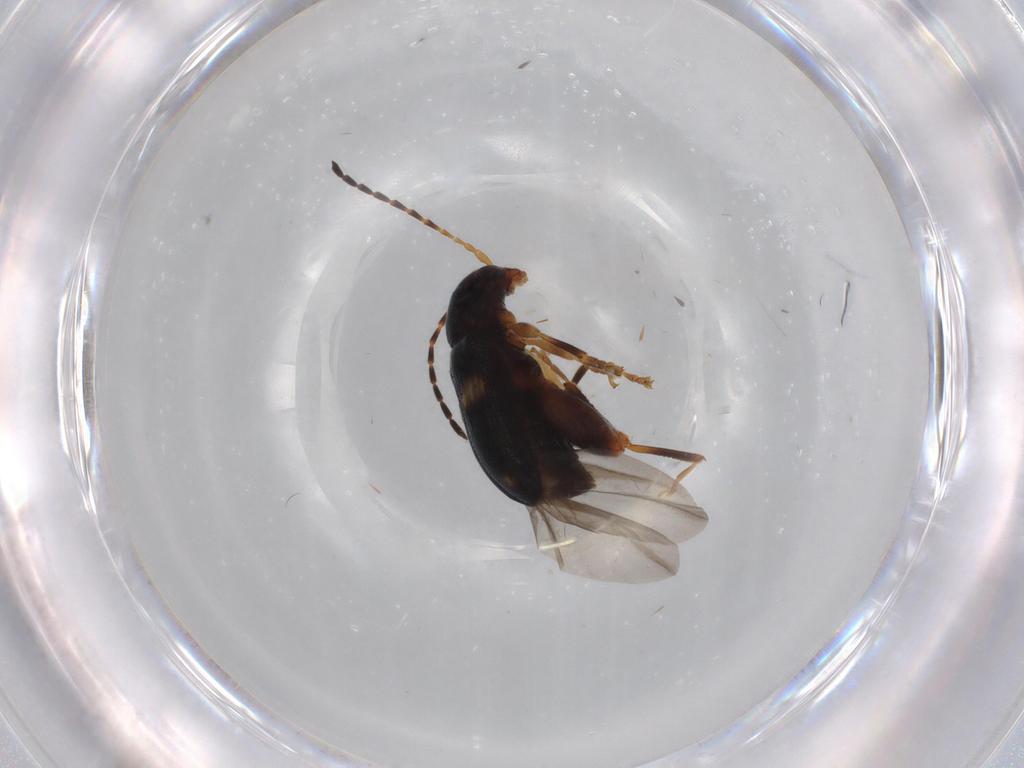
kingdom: Animalia
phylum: Arthropoda
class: Insecta
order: Coleoptera
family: Chrysomelidae
